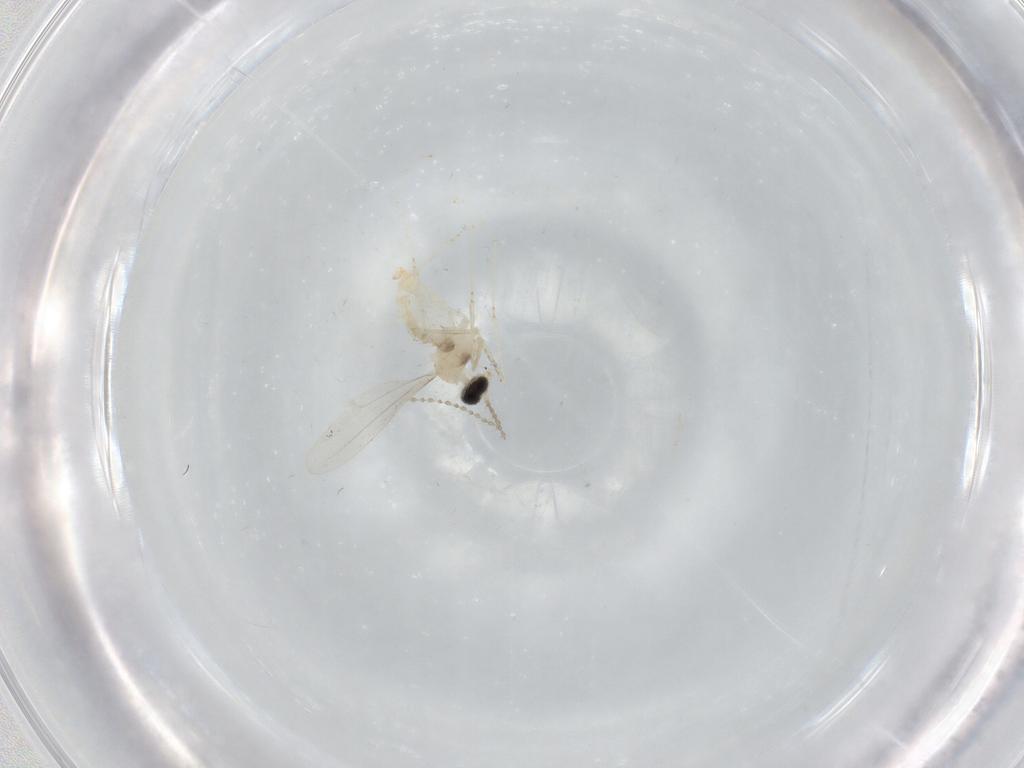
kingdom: Animalia
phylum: Arthropoda
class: Insecta
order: Diptera
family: Cecidomyiidae
